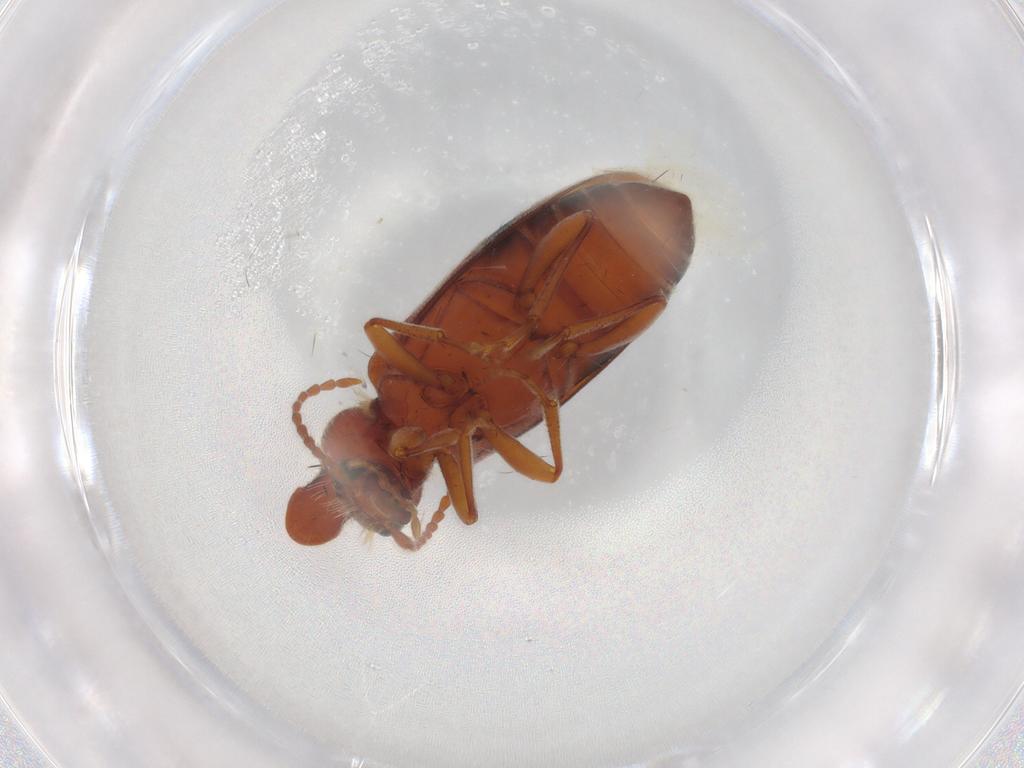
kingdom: Animalia
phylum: Arthropoda
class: Insecta
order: Coleoptera
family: Anthicidae
